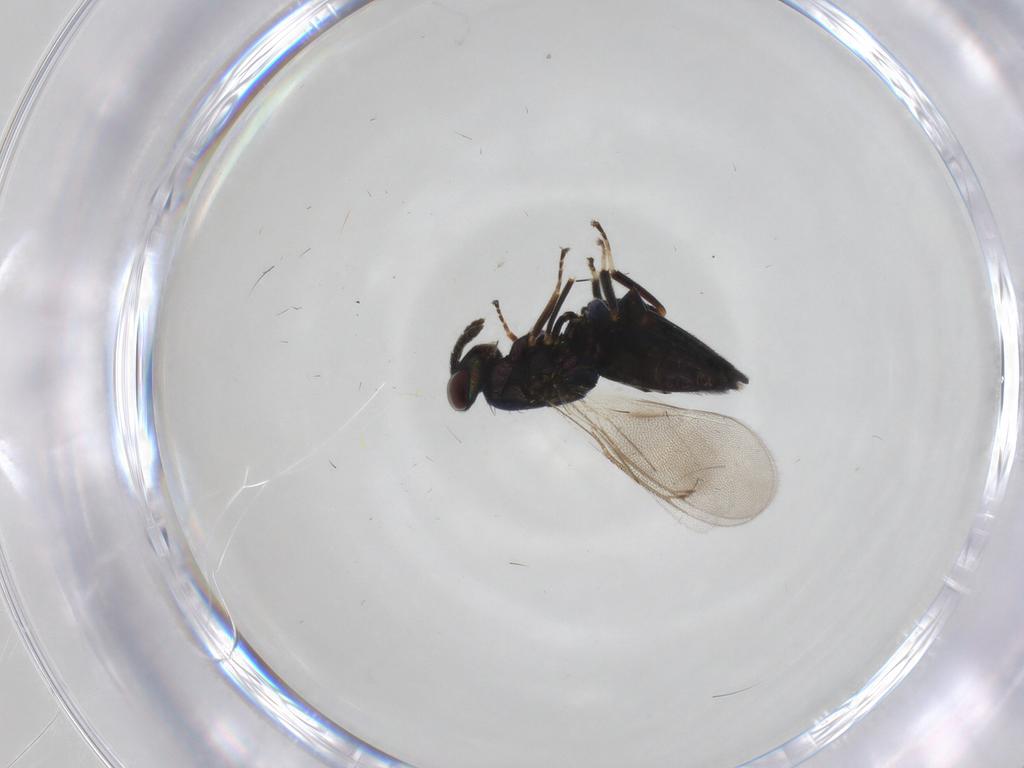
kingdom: Animalia
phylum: Arthropoda
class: Insecta
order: Hymenoptera
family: Eulophidae
